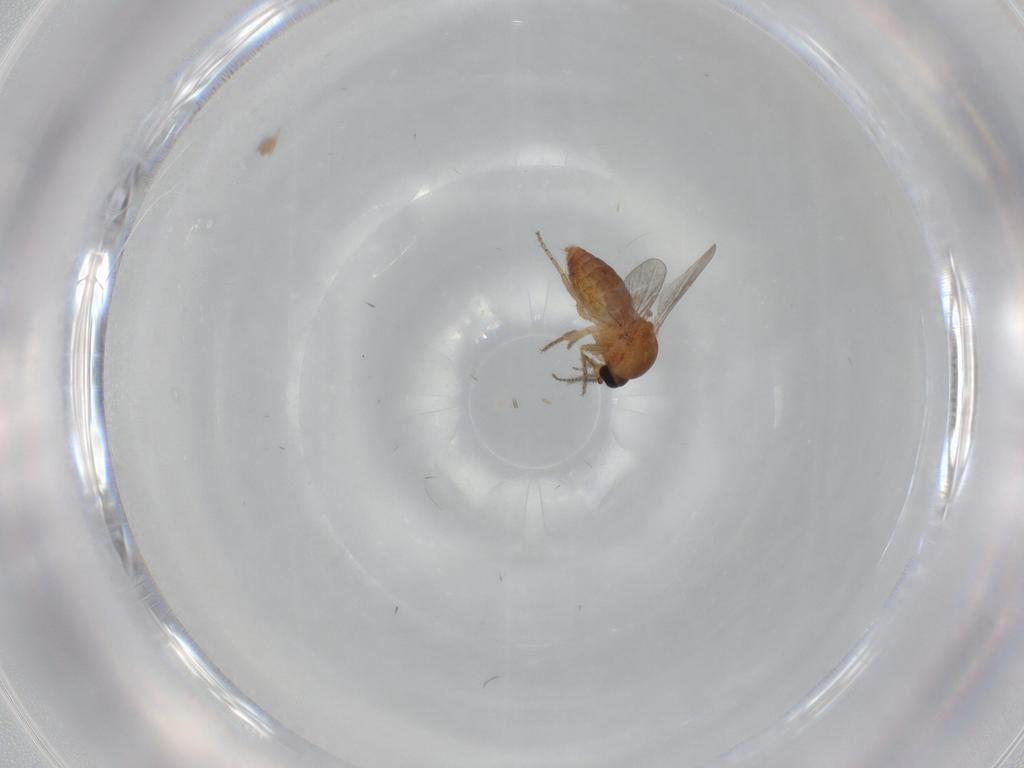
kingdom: Animalia
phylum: Arthropoda
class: Insecta
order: Diptera
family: Ceratopogonidae
